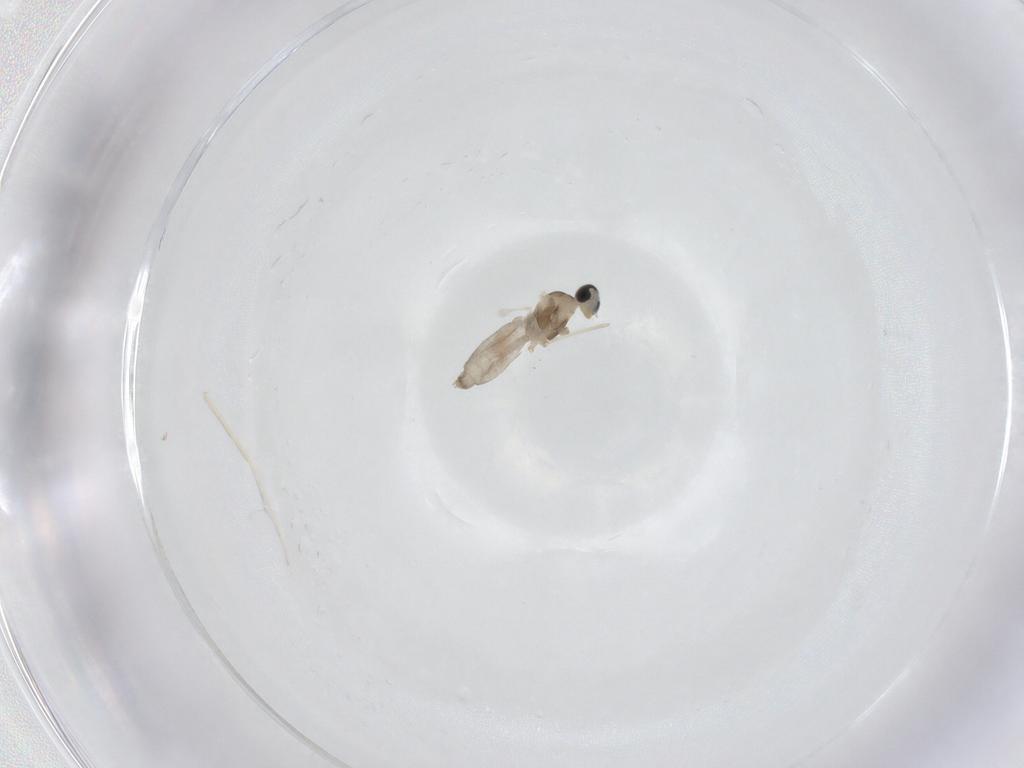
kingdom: Animalia
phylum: Arthropoda
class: Insecta
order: Diptera
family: Cecidomyiidae
